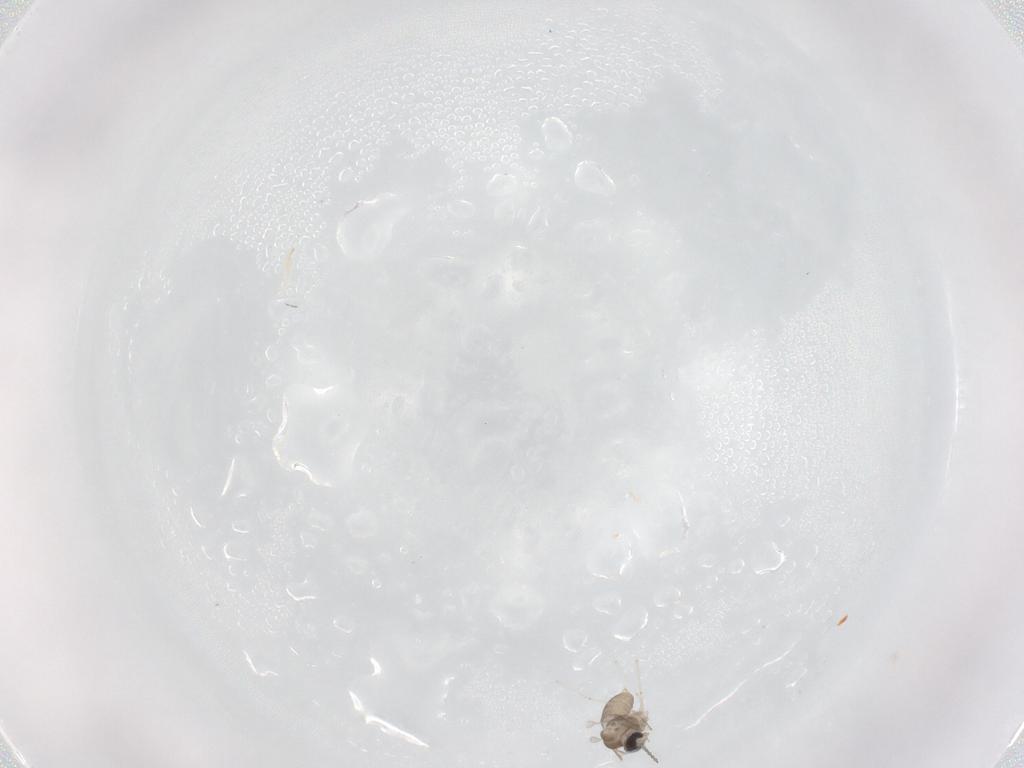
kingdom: Animalia
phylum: Arthropoda
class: Insecta
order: Diptera
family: Cecidomyiidae
